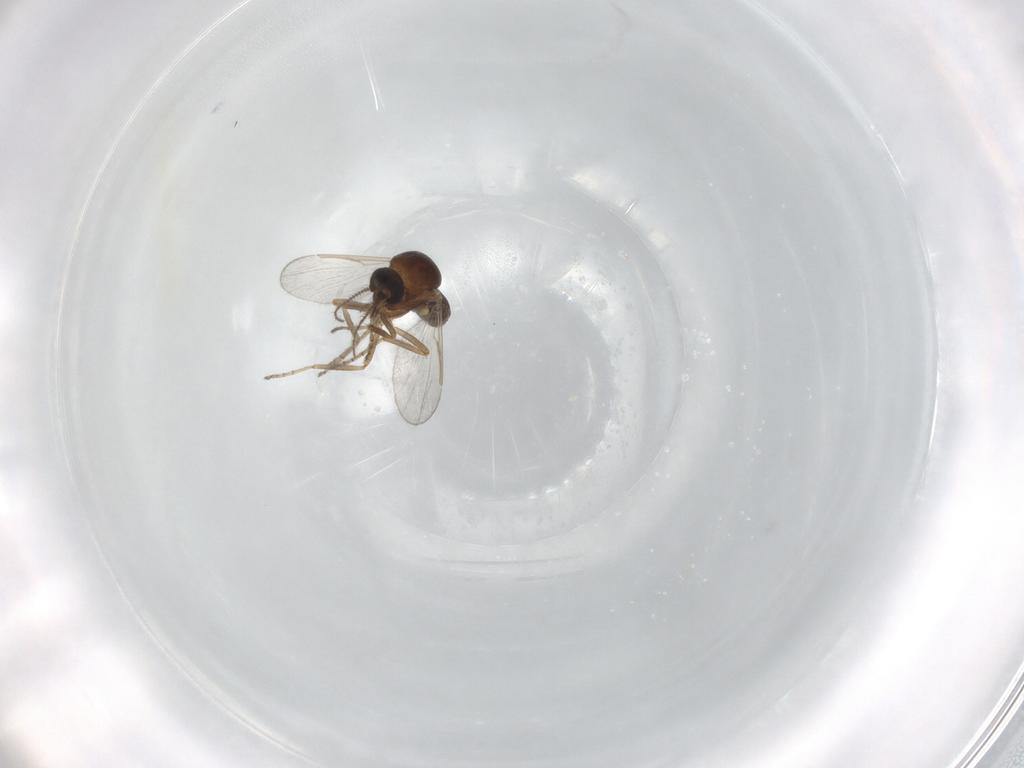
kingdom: Animalia
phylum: Arthropoda
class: Insecta
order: Diptera
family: Ceratopogonidae
